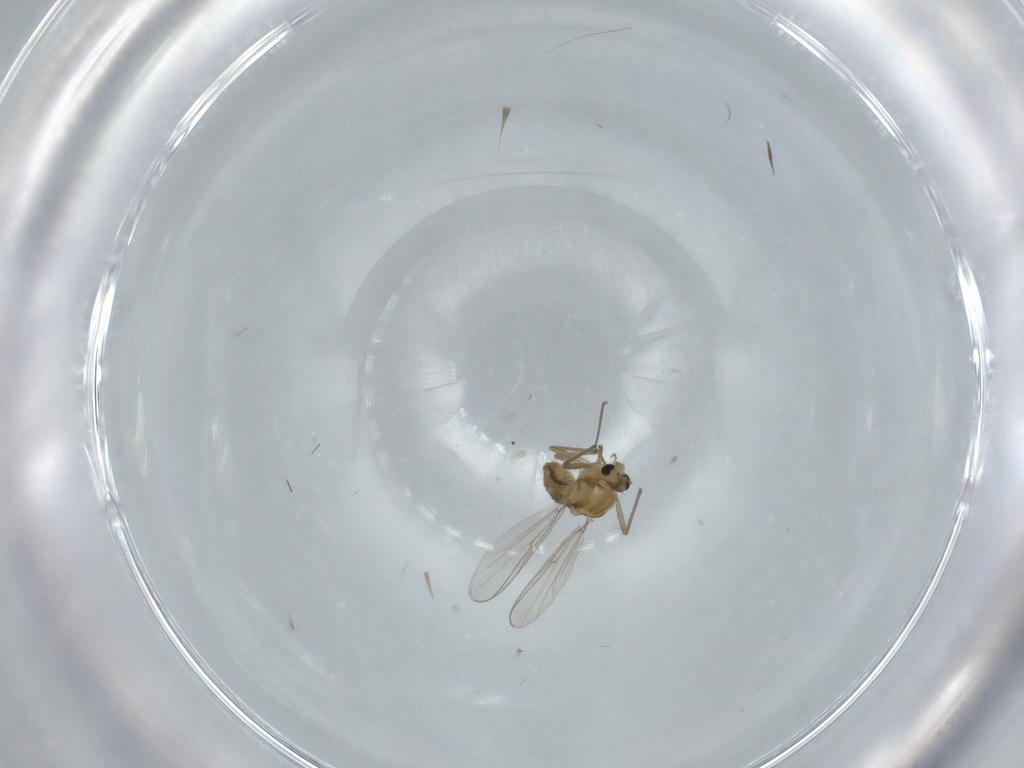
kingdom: Animalia
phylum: Arthropoda
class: Insecta
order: Diptera
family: Chironomidae
